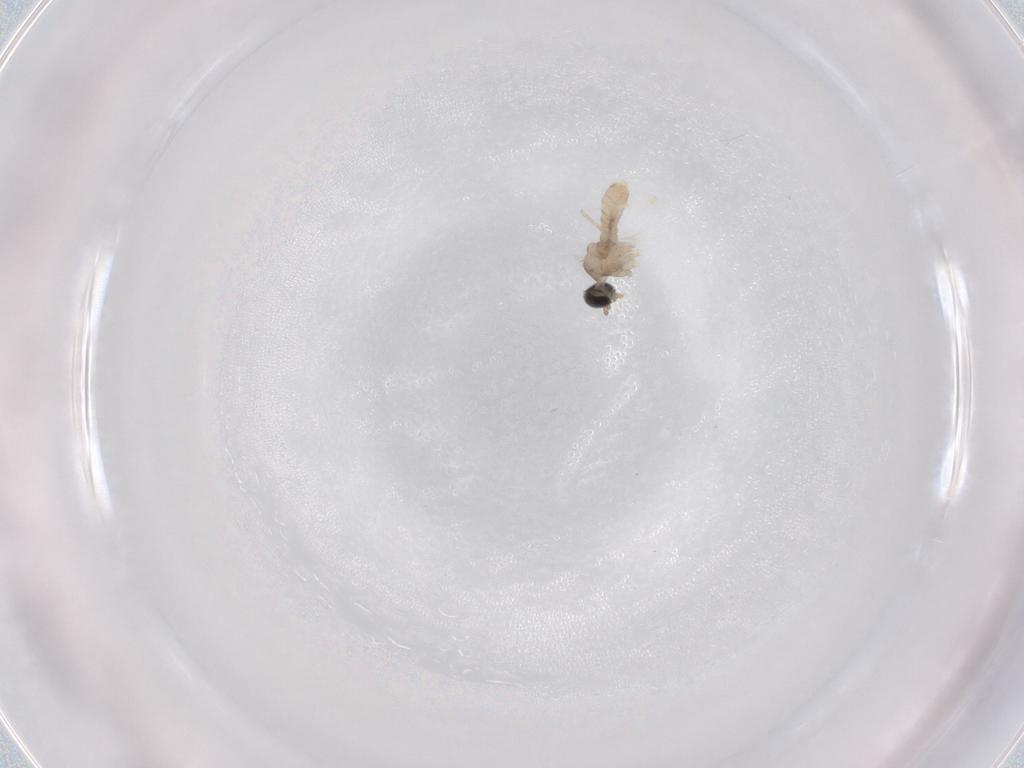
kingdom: Animalia
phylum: Arthropoda
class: Insecta
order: Diptera
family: Cecidomyiidae
